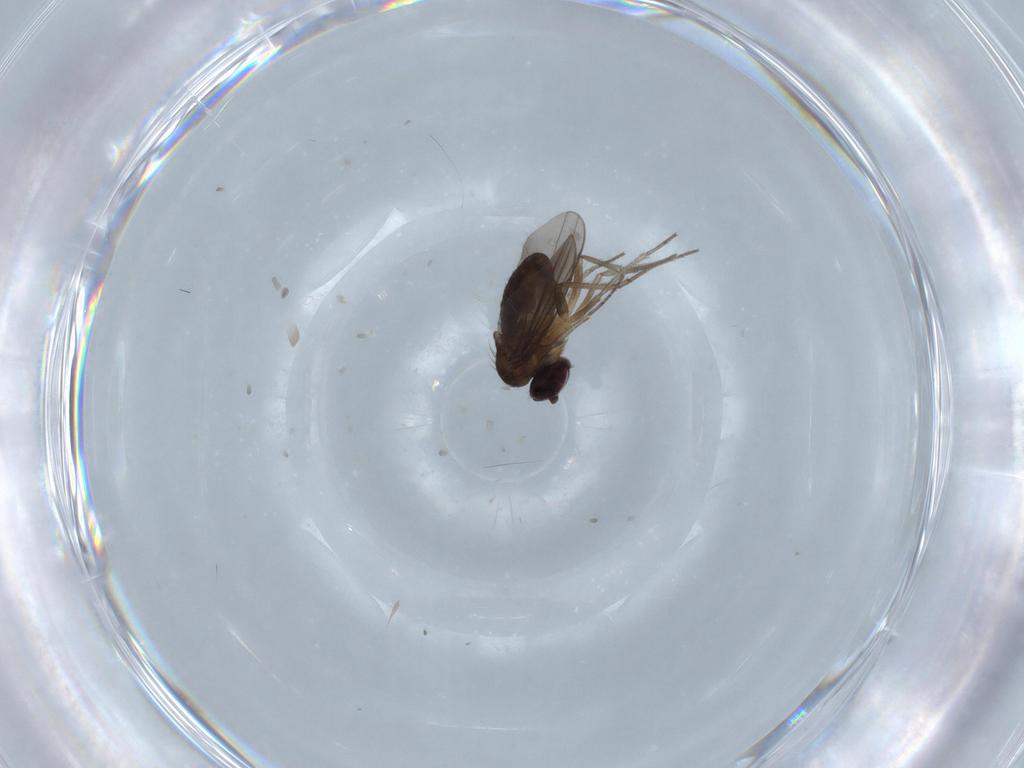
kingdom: Animalia
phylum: Arthropoda
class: Insecta
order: Diptera
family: Dolichopodidae
